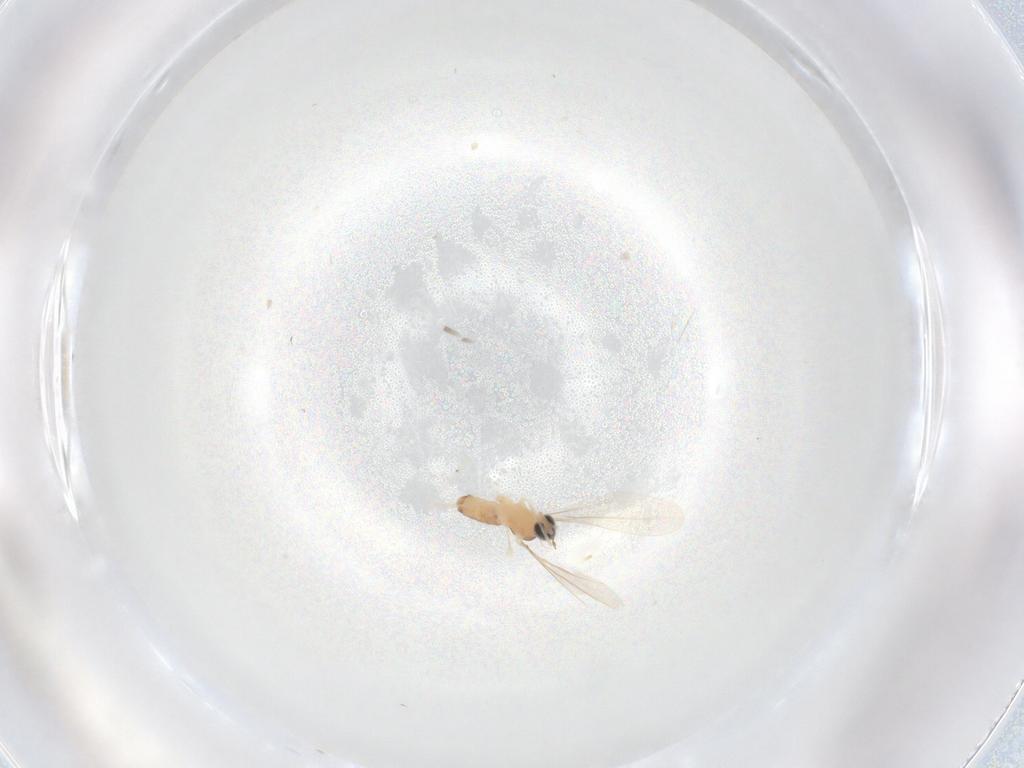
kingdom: Animalia
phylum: Arthropoda
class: Insecta
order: Diptera
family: Cecidomyiidae
